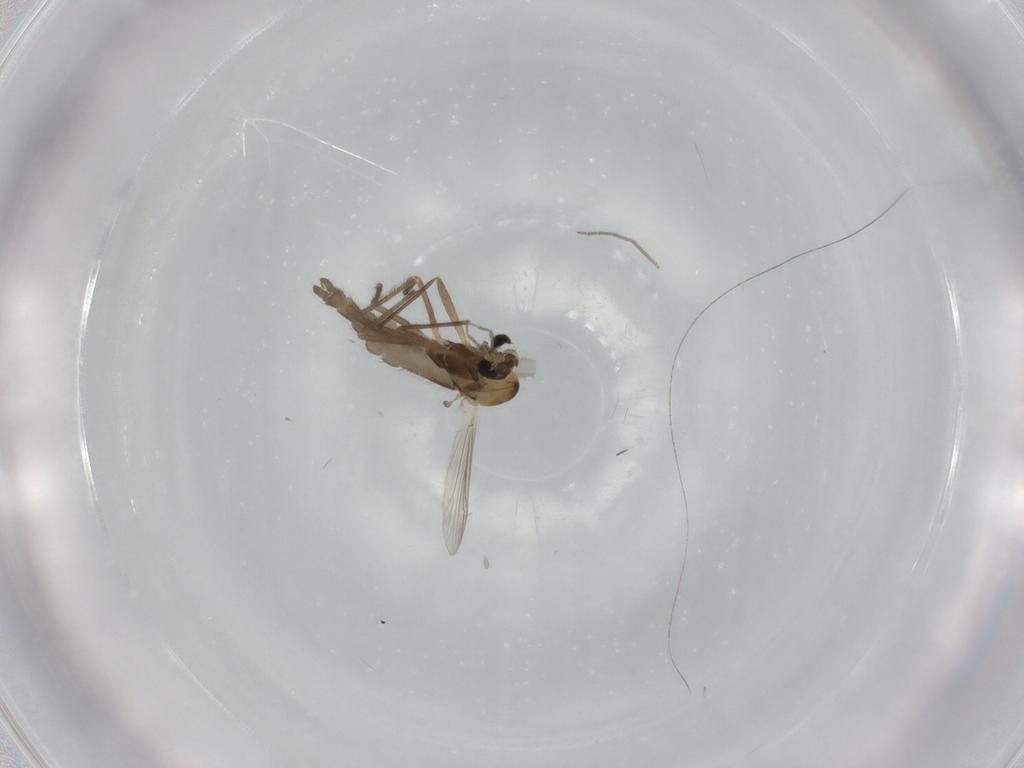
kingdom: Animalia
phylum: Arthropoda
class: Insecta
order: Diptera
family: Chironomidae
